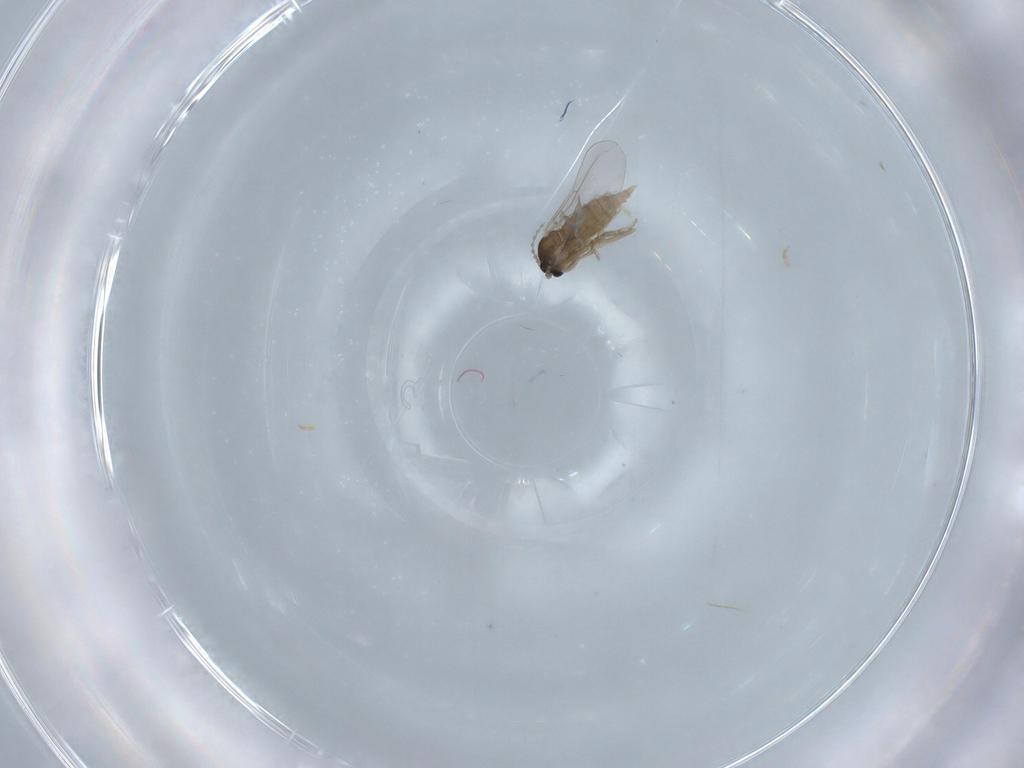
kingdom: Animalia
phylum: Arthropoda
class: Insecta
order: Diptera
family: Cecidomyiidae
